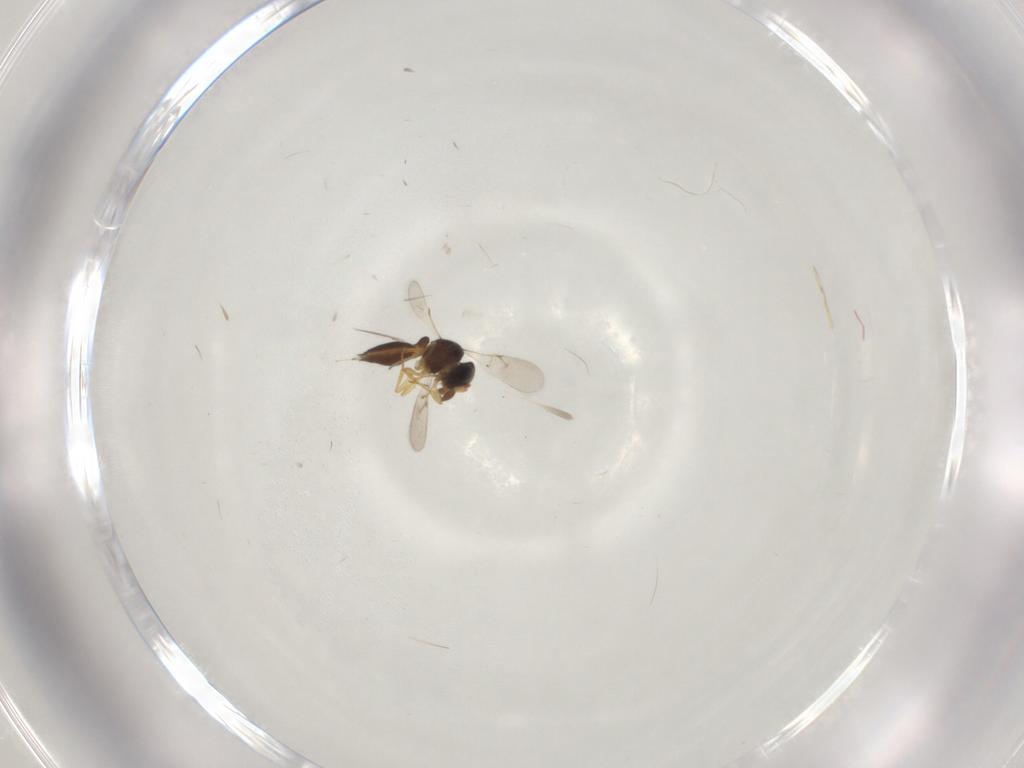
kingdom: Animalia
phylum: Arthropoda
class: Insecta
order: Hymenoptera
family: Scelionidae
